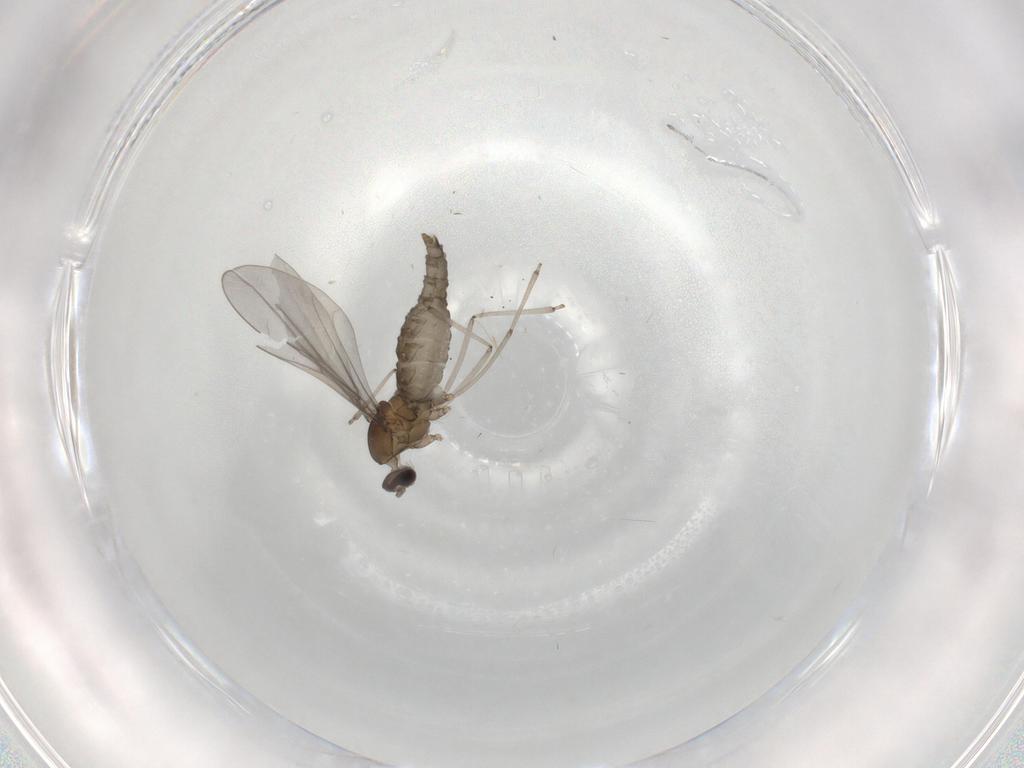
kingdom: Animalia
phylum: Arthropoda
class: Insecta
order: Diptera
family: Cecidomyiidae
